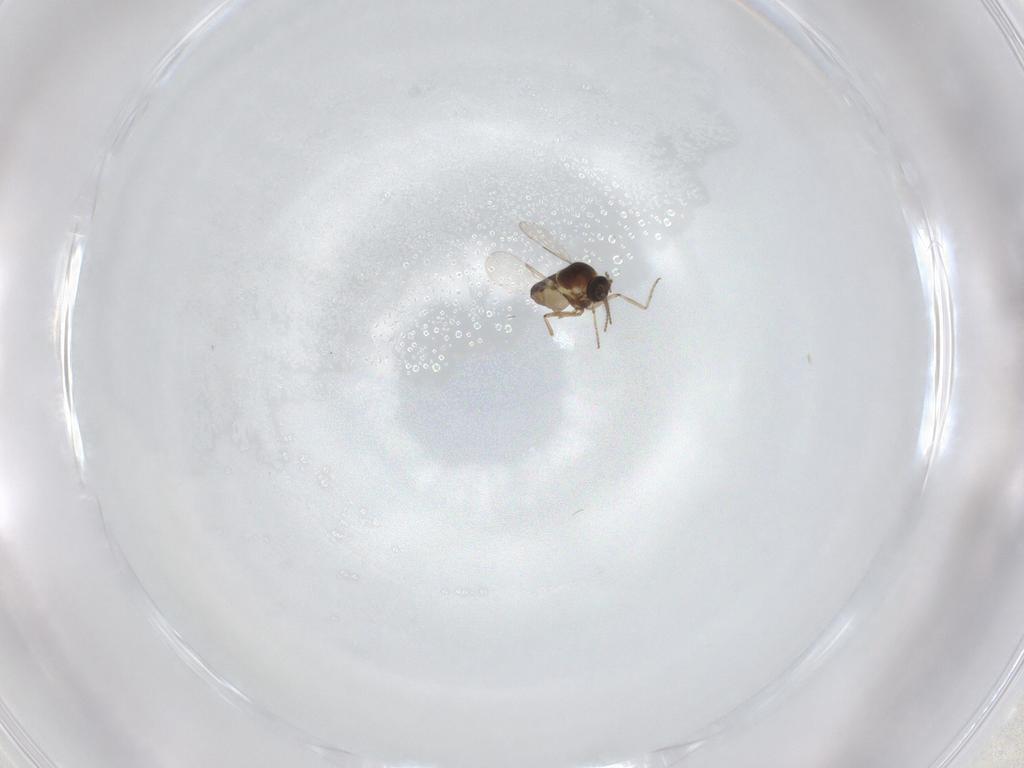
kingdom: Animalia
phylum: Arthropoda
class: Insecta
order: Diptera
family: Ceratopogonidae
